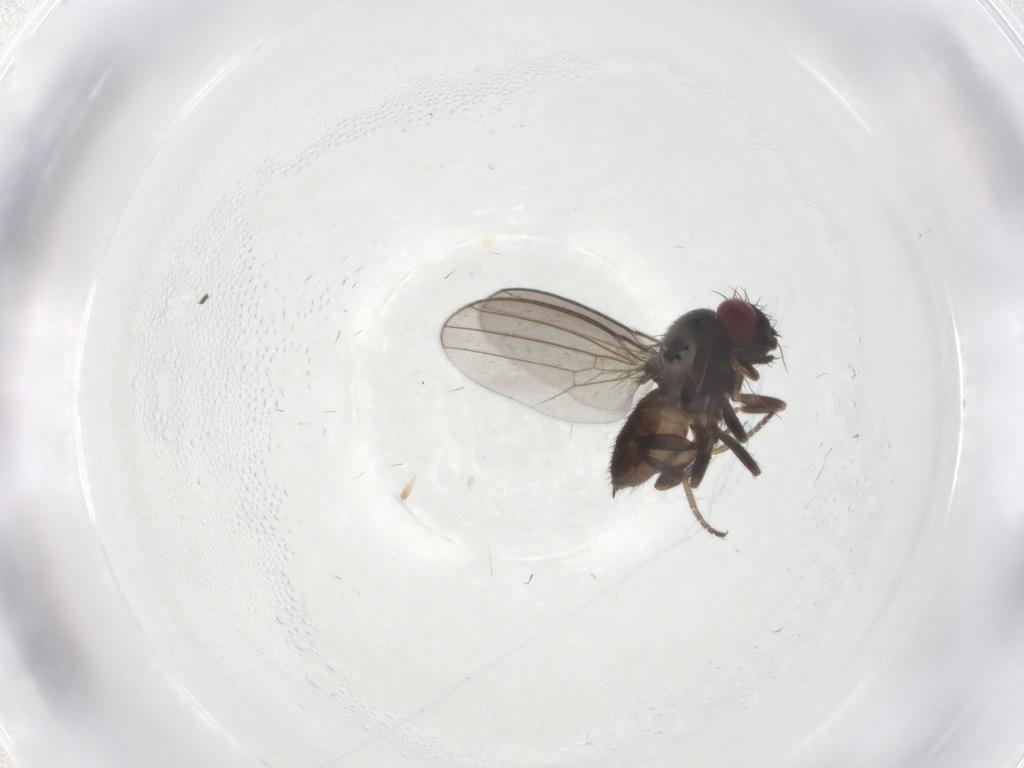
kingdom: Animalia
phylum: Arthropoda
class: Insecta
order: Diptera
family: Milichiidae
